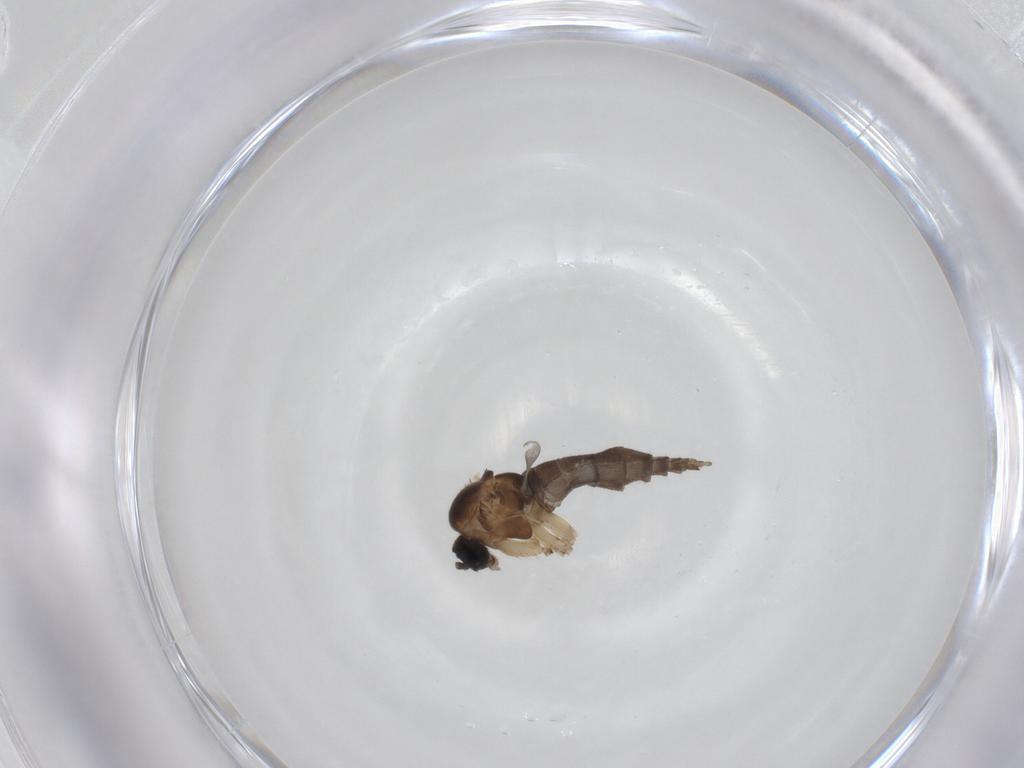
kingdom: Animalia
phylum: Arthropoda
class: Insecta
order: Diptera
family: Sciaridae
